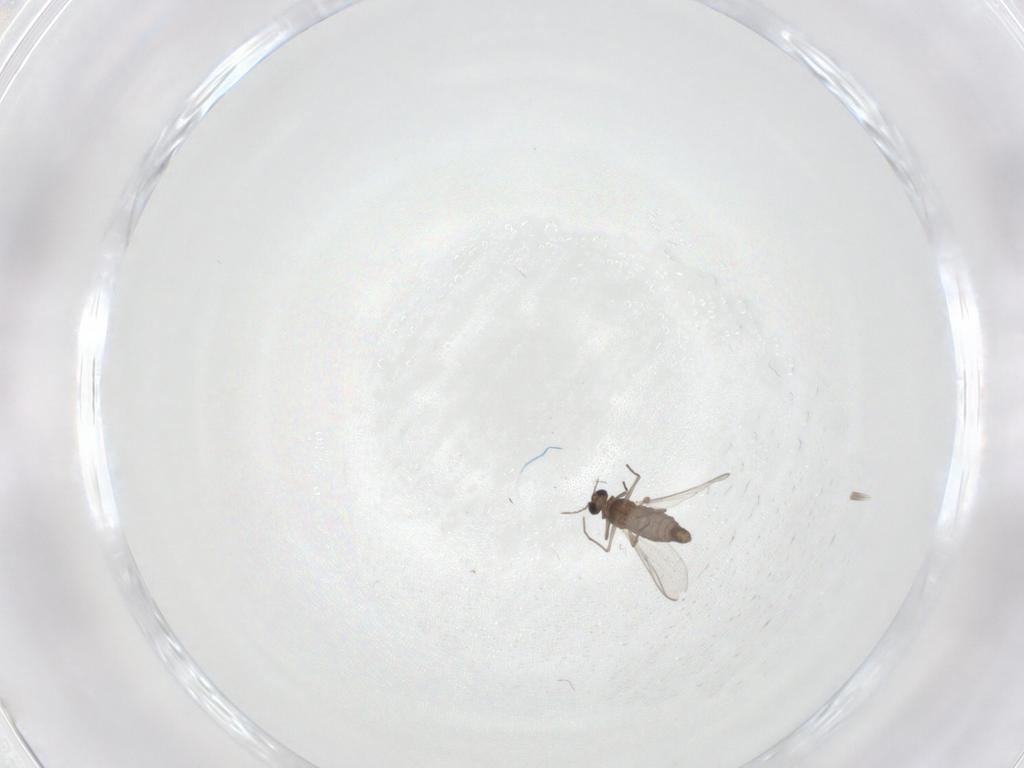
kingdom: Animalia
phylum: Arthropoda
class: Insecta
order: Diptera
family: Chironomidae
